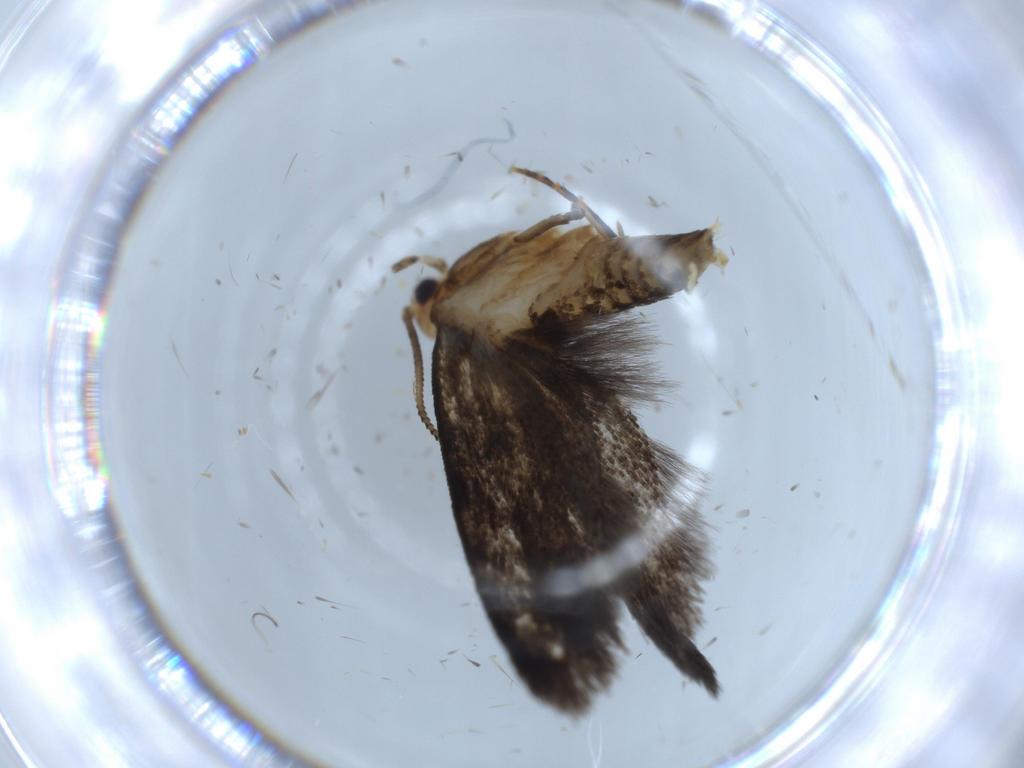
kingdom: Animalia
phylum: Arthropoda
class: Insecta
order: Lepidoptera
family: Tineidae
